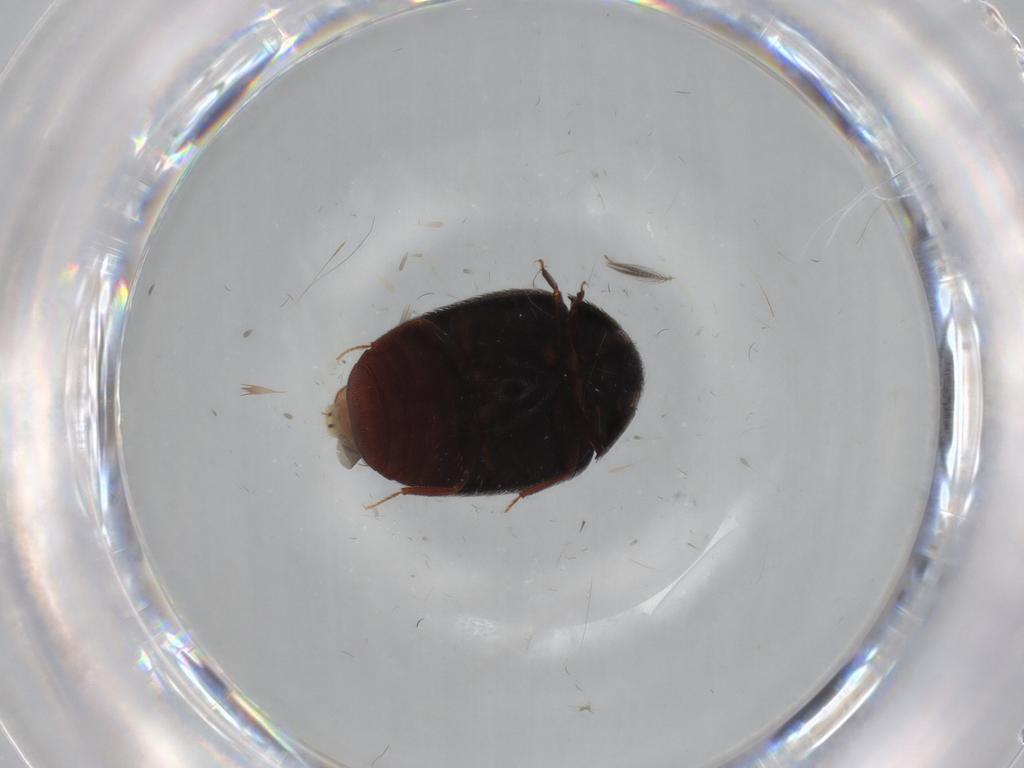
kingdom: Animalia
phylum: Arthropoda
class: Insecta
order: Coleoptera
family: Dermestidae
